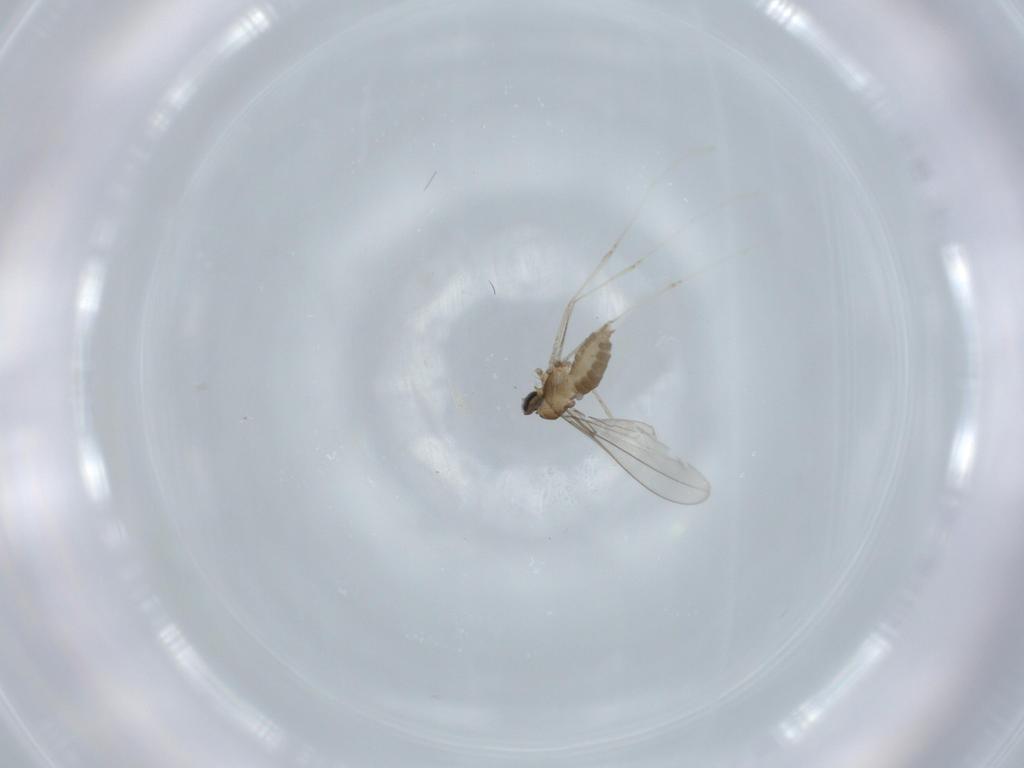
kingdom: Animalia
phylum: Arthropoda
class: Insecta
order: Diptera
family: Cecidomyiidae
